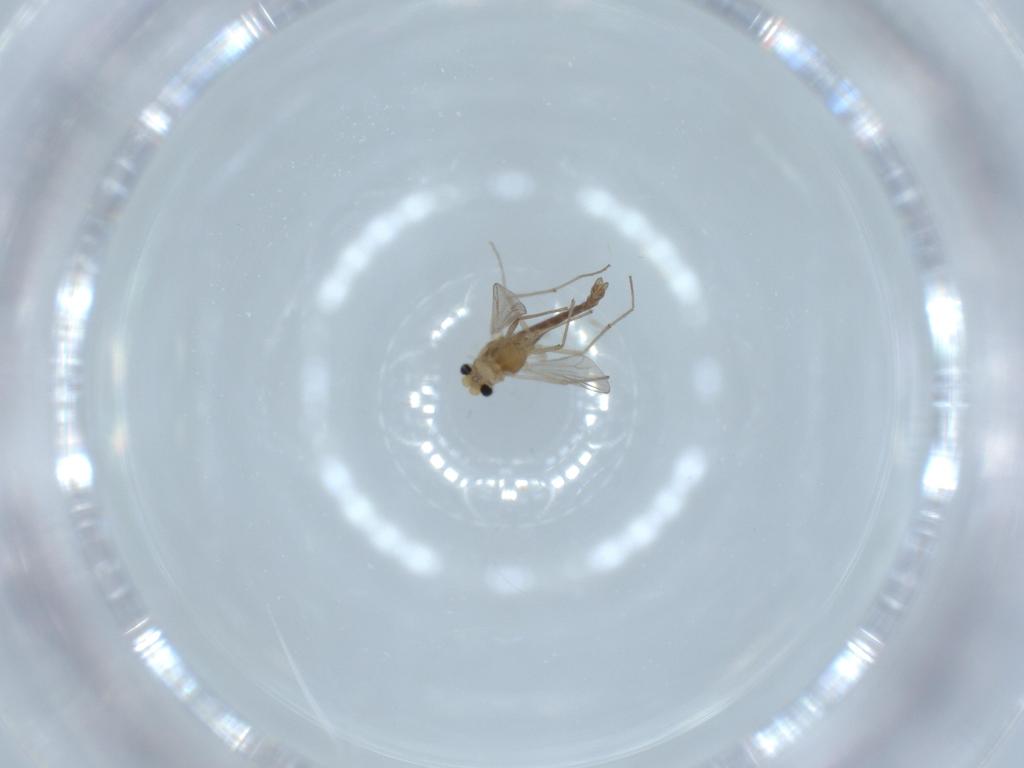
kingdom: Animalia
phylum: Arthropoda
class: Insecta
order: Diptera
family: Chironomidae
